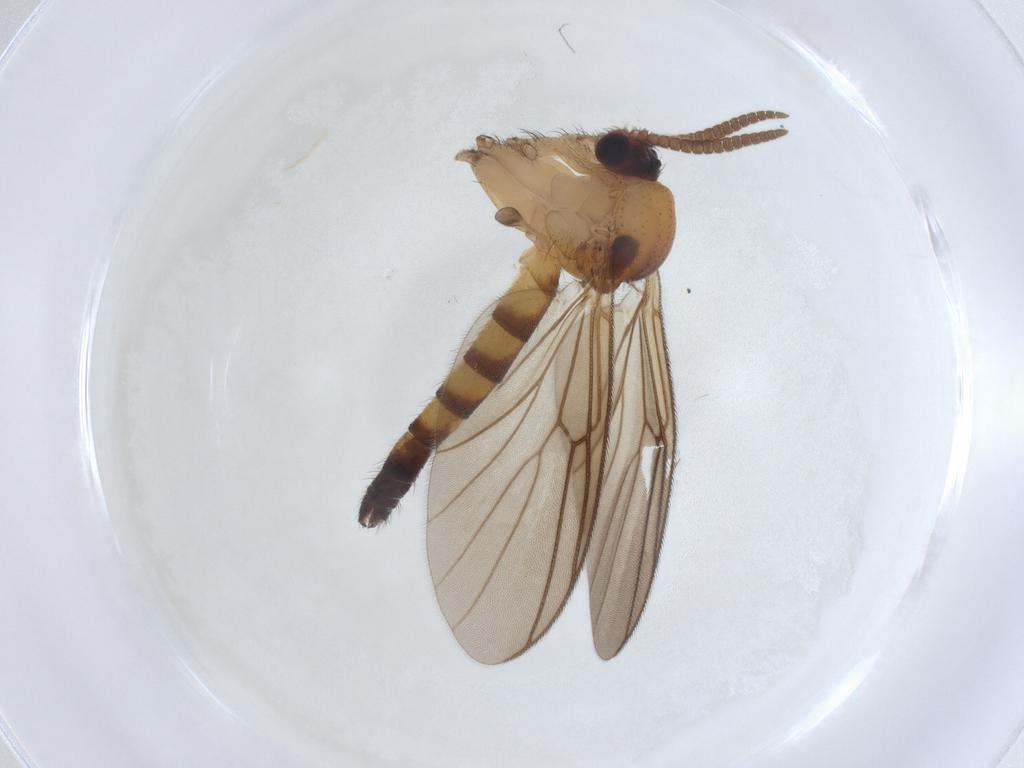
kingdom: Animalia
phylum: Arthropoda
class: Insecta
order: Diptera
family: Mycetophilidae
